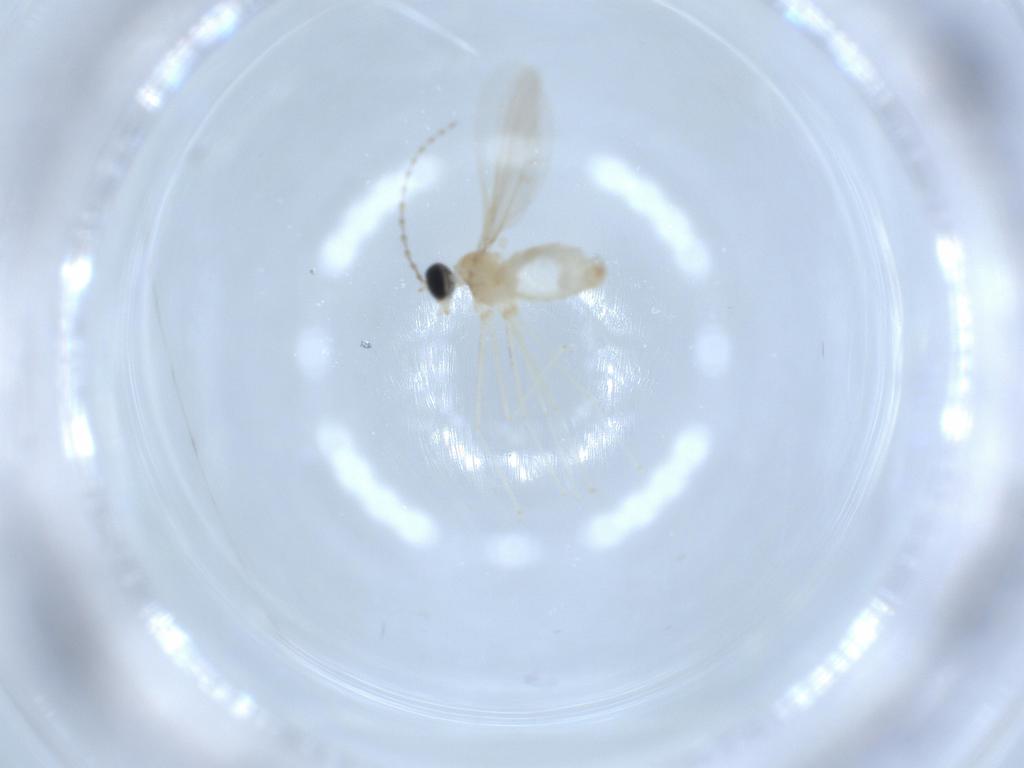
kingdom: Animalia
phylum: Arthropoda
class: Insecta
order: Diptera
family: Cecidomyiidae
